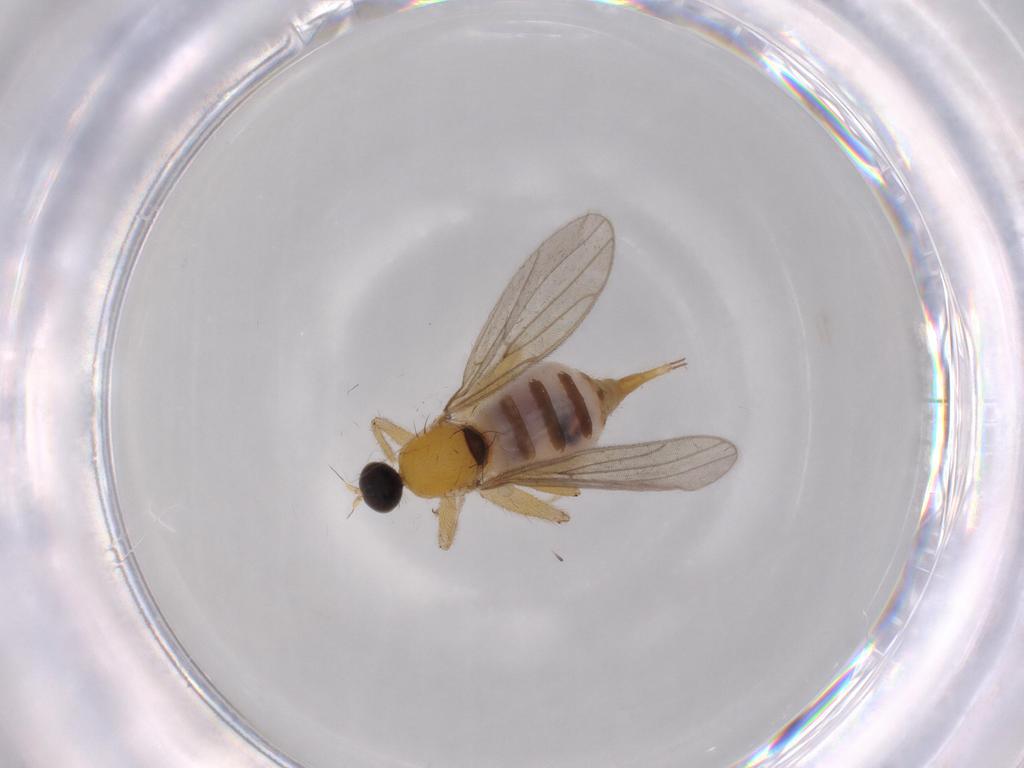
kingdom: Animalia
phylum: Arthropoda
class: Insecta
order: Diptera
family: Hybotidae
